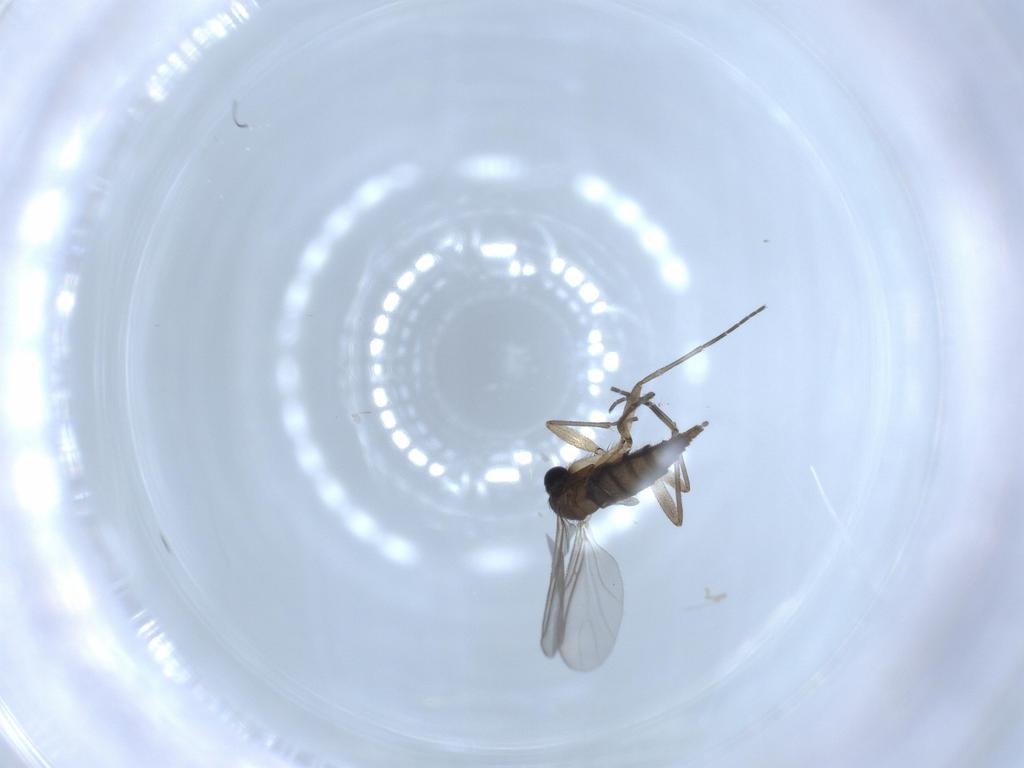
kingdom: Animalia
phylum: Arthropoda
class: Insecta
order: Diptera
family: Sciaridae
